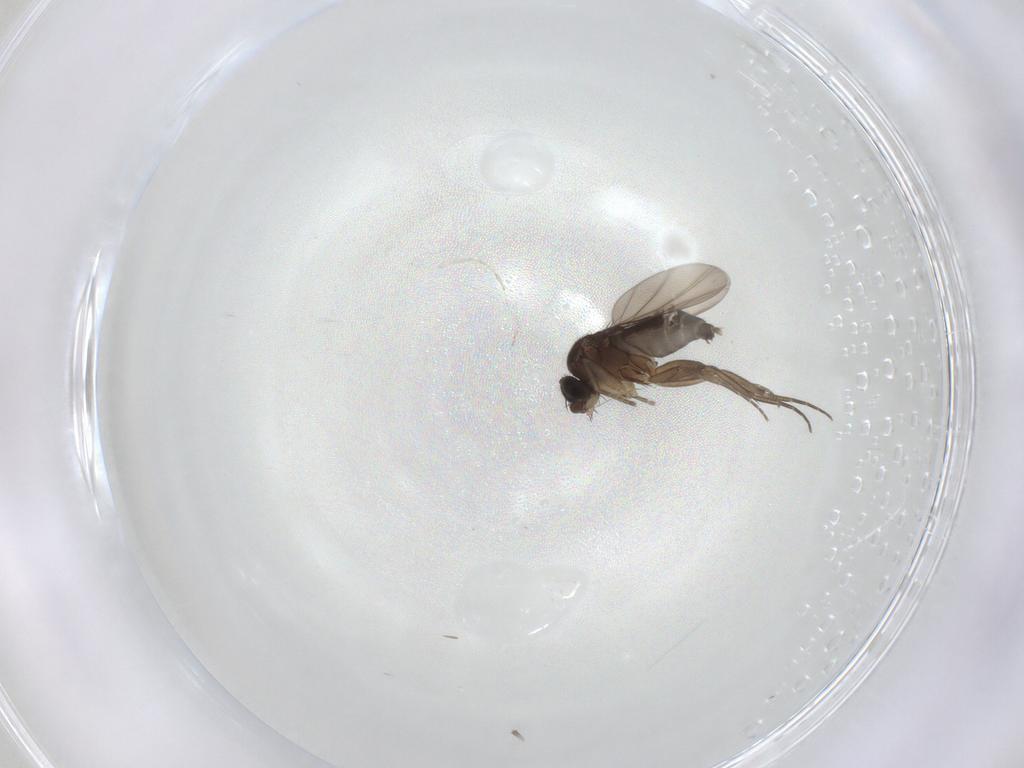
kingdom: Animalia
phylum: Arthropoda
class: Insecta
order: Diptera
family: Phoridae
